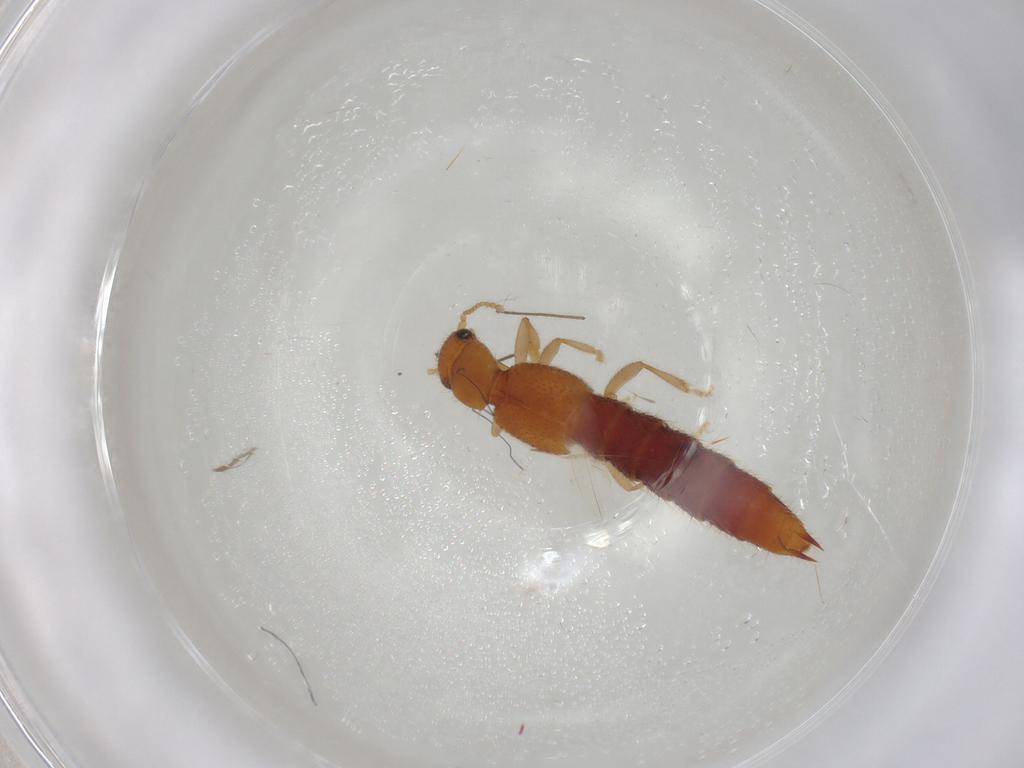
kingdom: Animalia
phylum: Arthropoda
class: Insecta
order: Coleoptera
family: Staphylinidae
